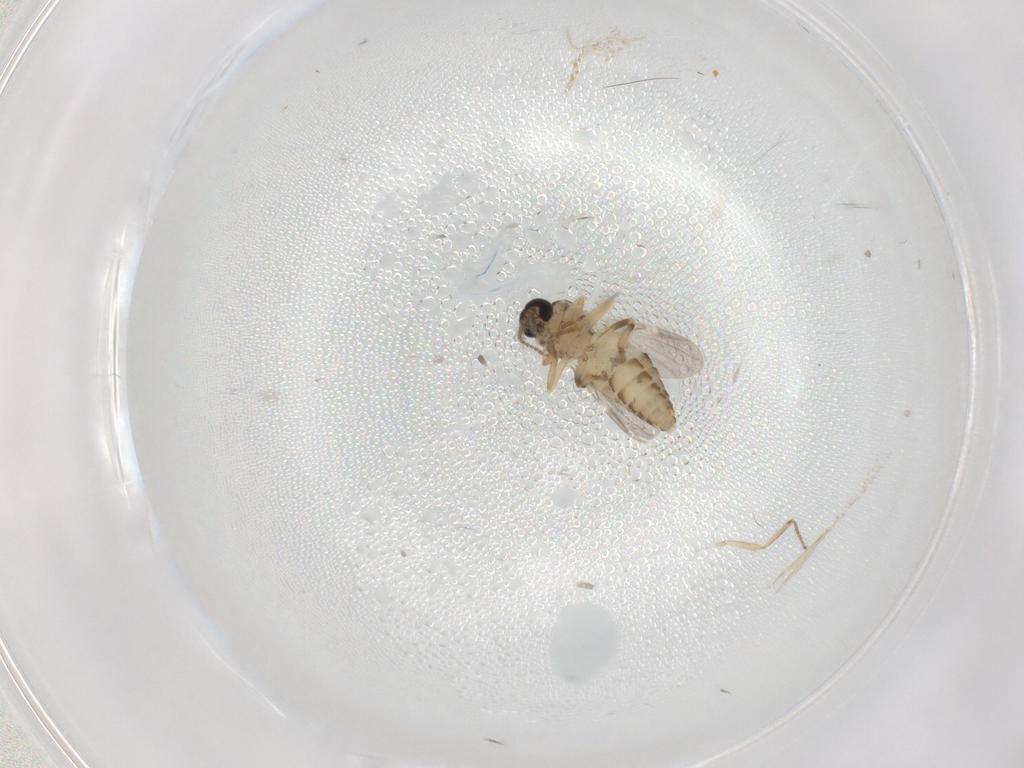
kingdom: Animalia
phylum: Arthropoda
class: Insecta
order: Diptera
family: Ceratopogonidae
